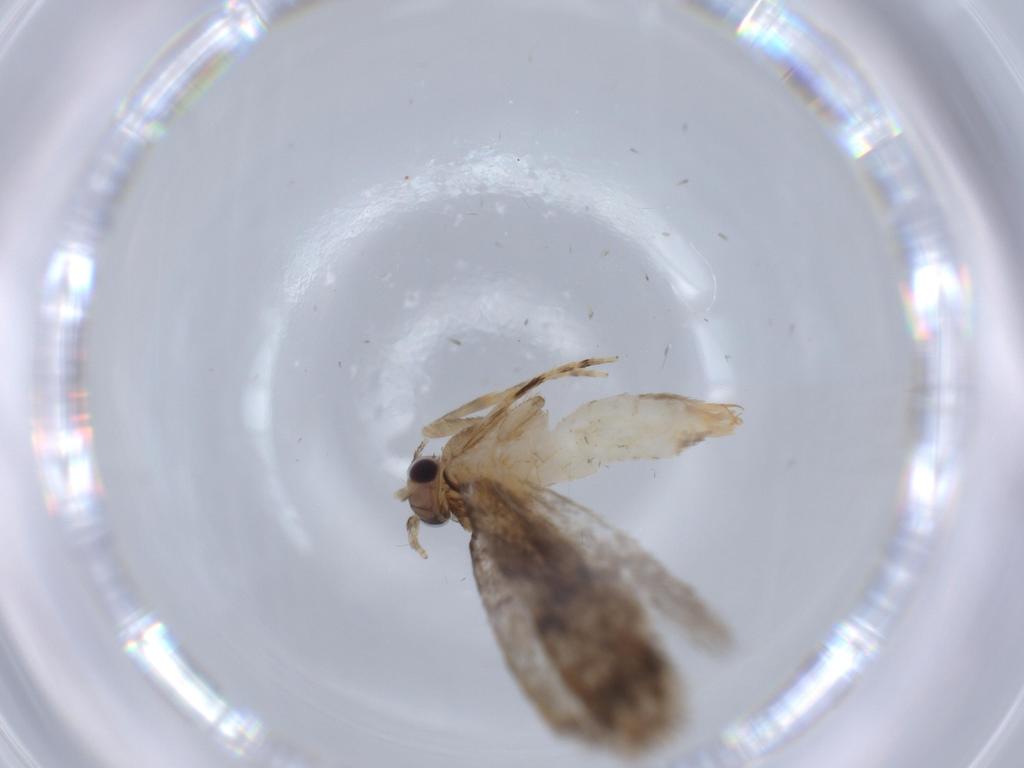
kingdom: Animalia
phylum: Arthropoda
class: Insecta
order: Lepidoptera
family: Tineidae
